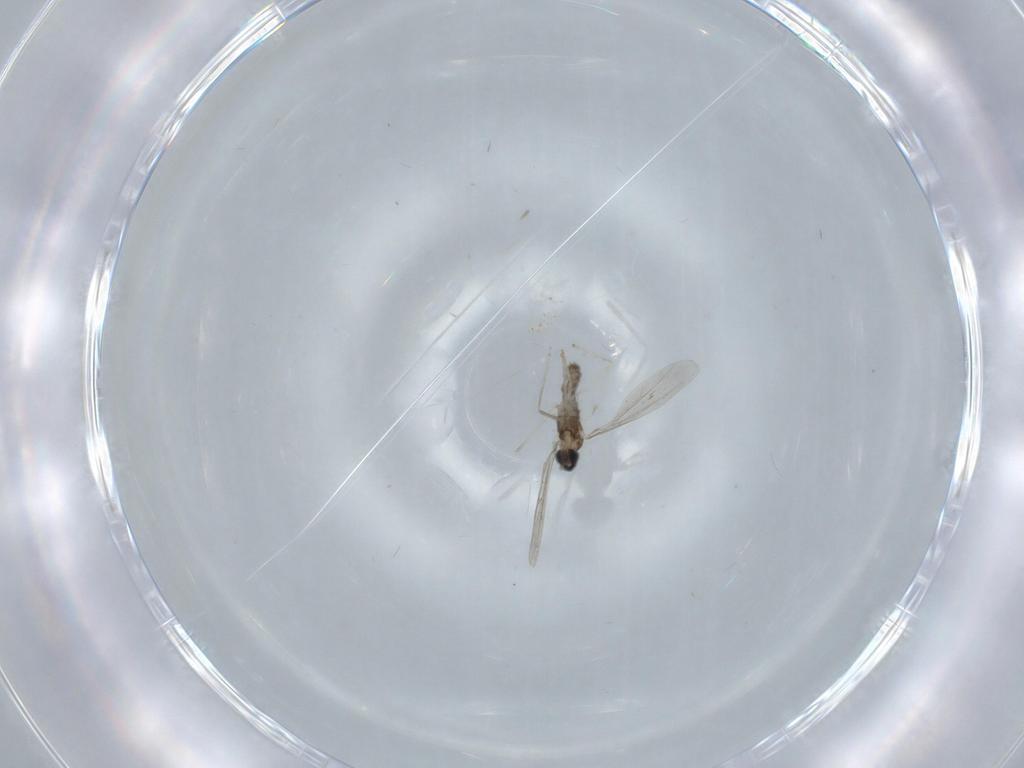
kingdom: Animalia
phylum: Arthropoda
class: Insecta
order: Diptera
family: Cecidomyiidae
